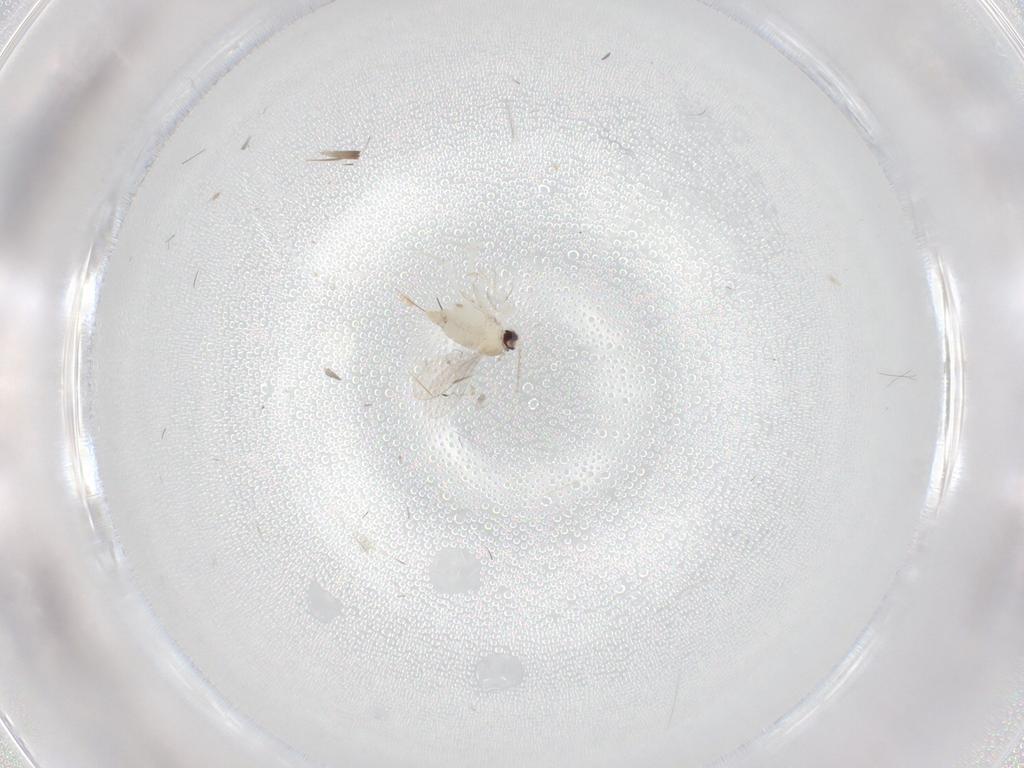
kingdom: Animalia
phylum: Arthropoda
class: Insecta
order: Diptera
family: Cecidomyiidae
